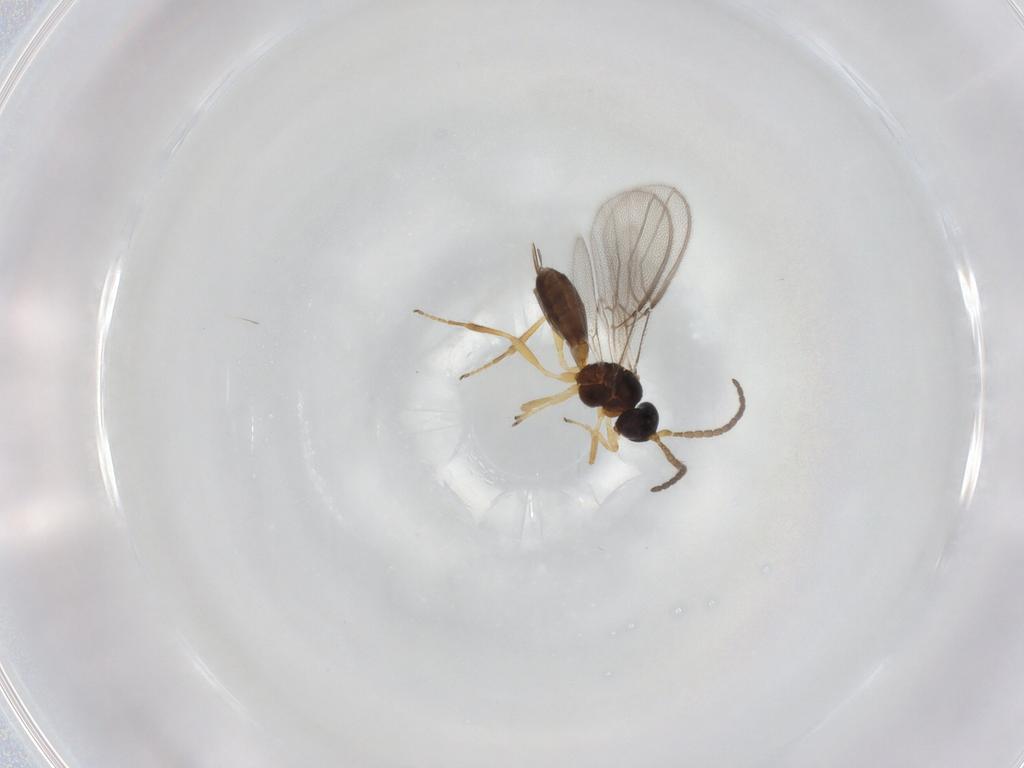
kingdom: Animalia
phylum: Arthropoda
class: Insecta
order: Hymenoptera
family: Braconidae
